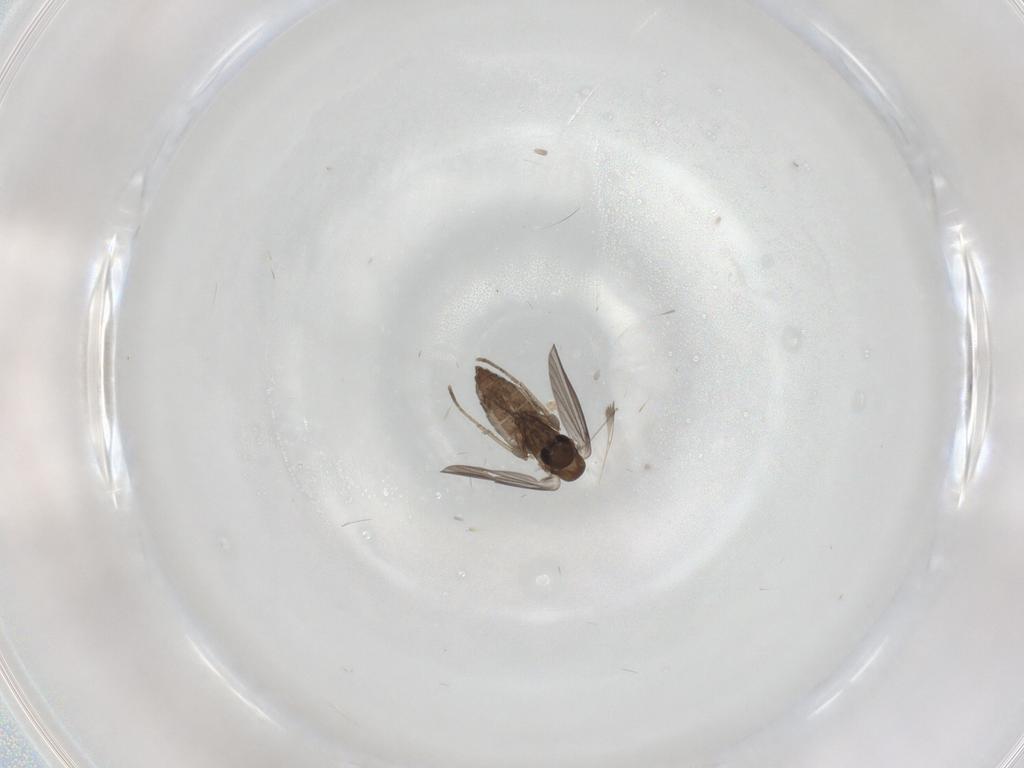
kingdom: Animalia
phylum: Arthropoda
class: Insecta
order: Diptera
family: Cecidomyiidae
